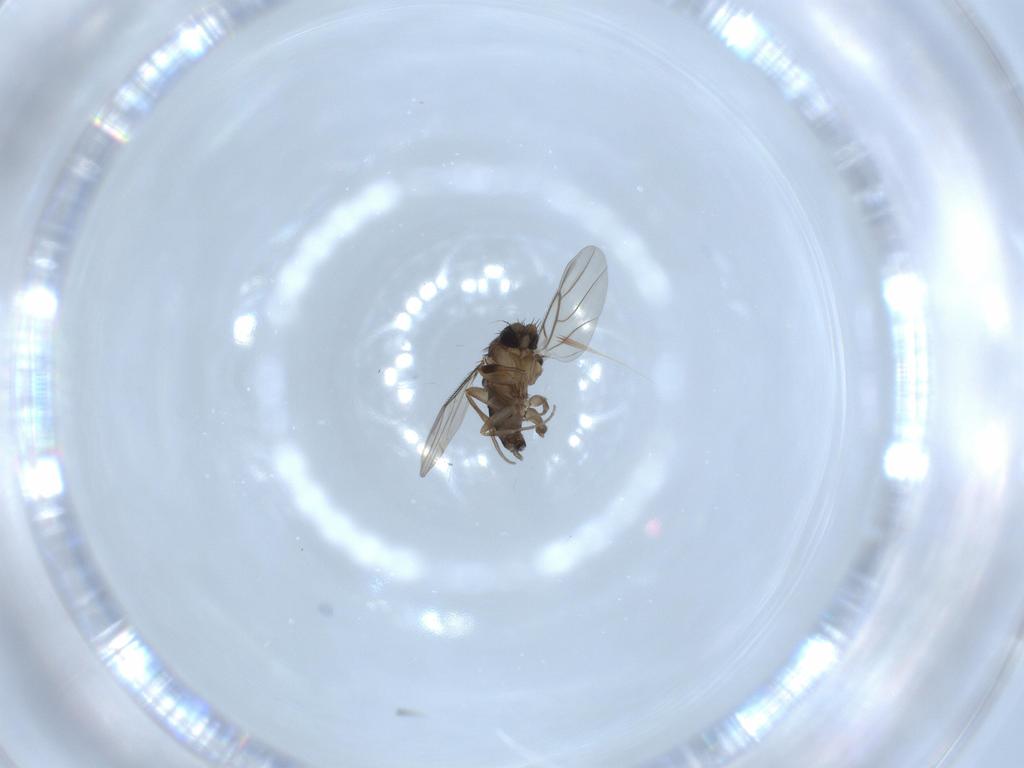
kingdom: Animalia
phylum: Arthropoda
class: Insecta
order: Diptera
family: Phoridae
